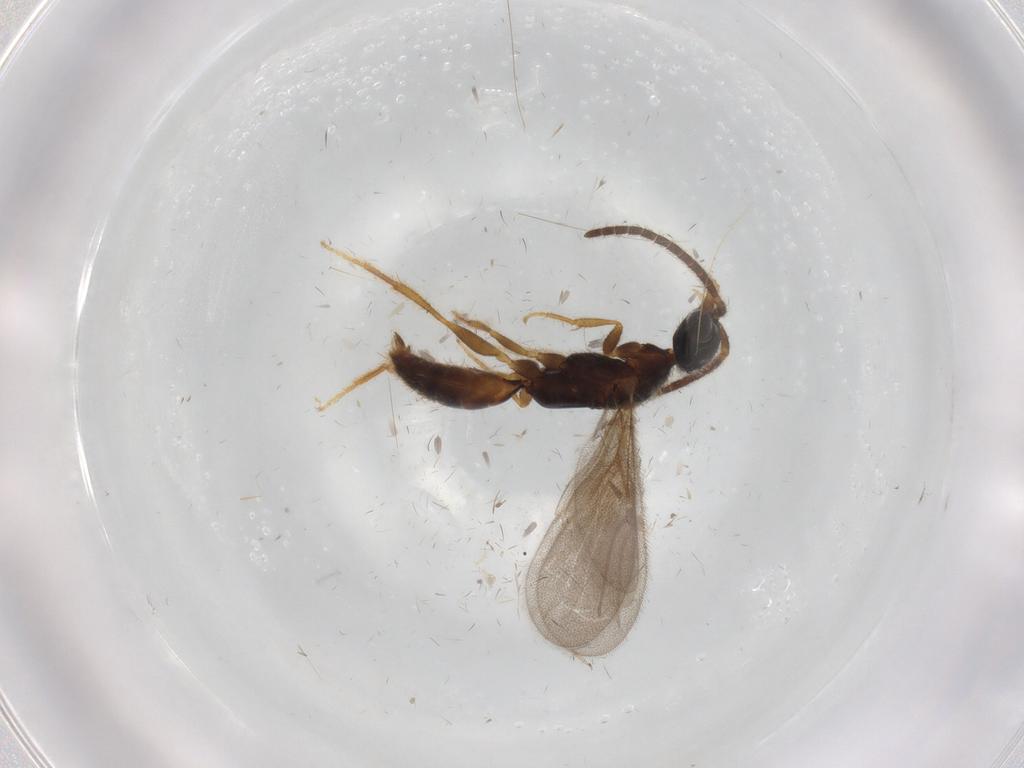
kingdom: Animalia
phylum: Arthropoda
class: Insecta
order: Hymenoptera
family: Bethylidae
